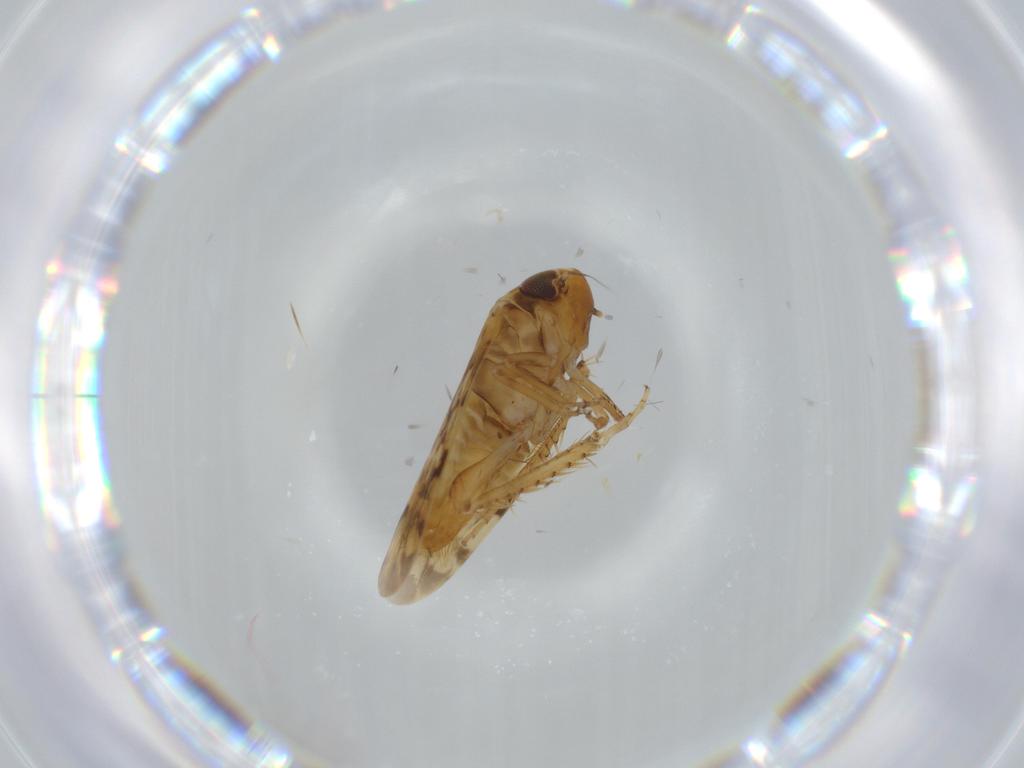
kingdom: Animalia
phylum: Arthropoda
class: Insecta
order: Hemiptera
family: Cicadellidae
